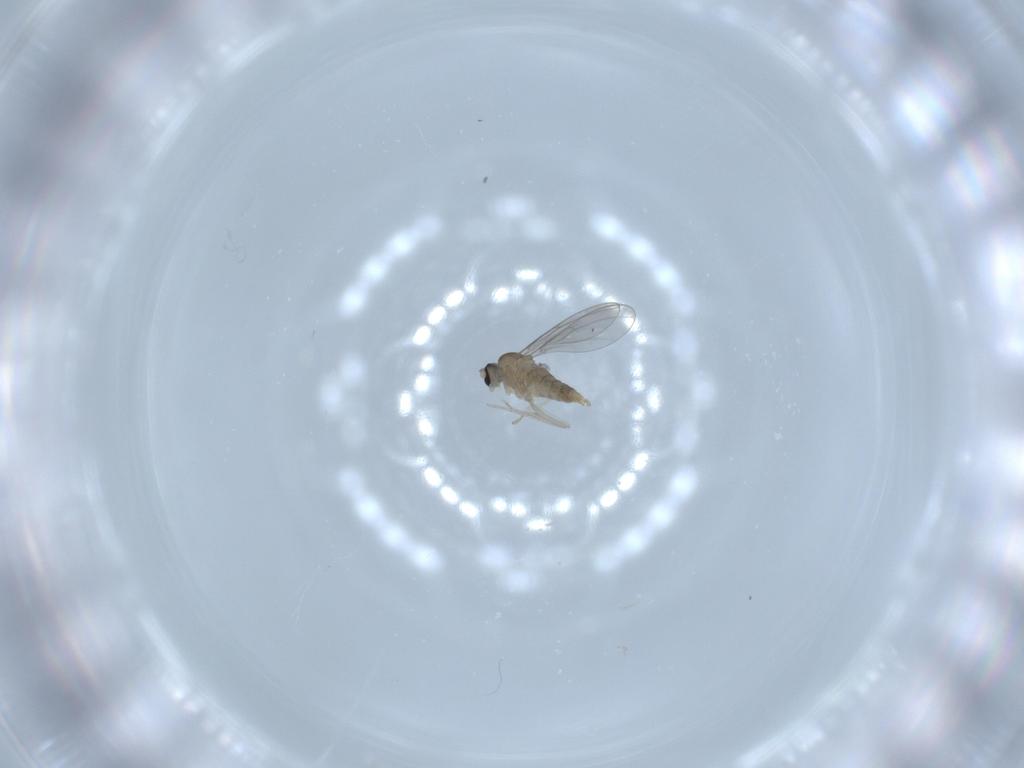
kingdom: Animalia
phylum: Arthropoda
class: Insecta
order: Diptera
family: Cecidomyiidae
